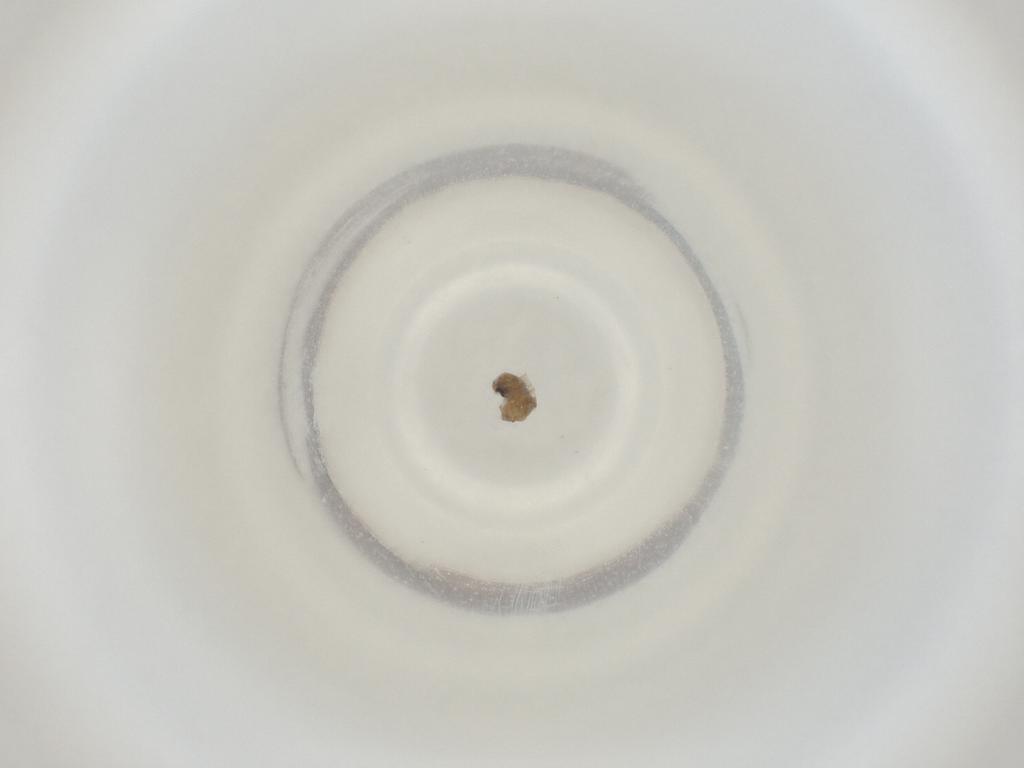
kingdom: Animalia
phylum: Arthropoda
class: Insecta
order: Diptera
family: Cecidomyiidae
